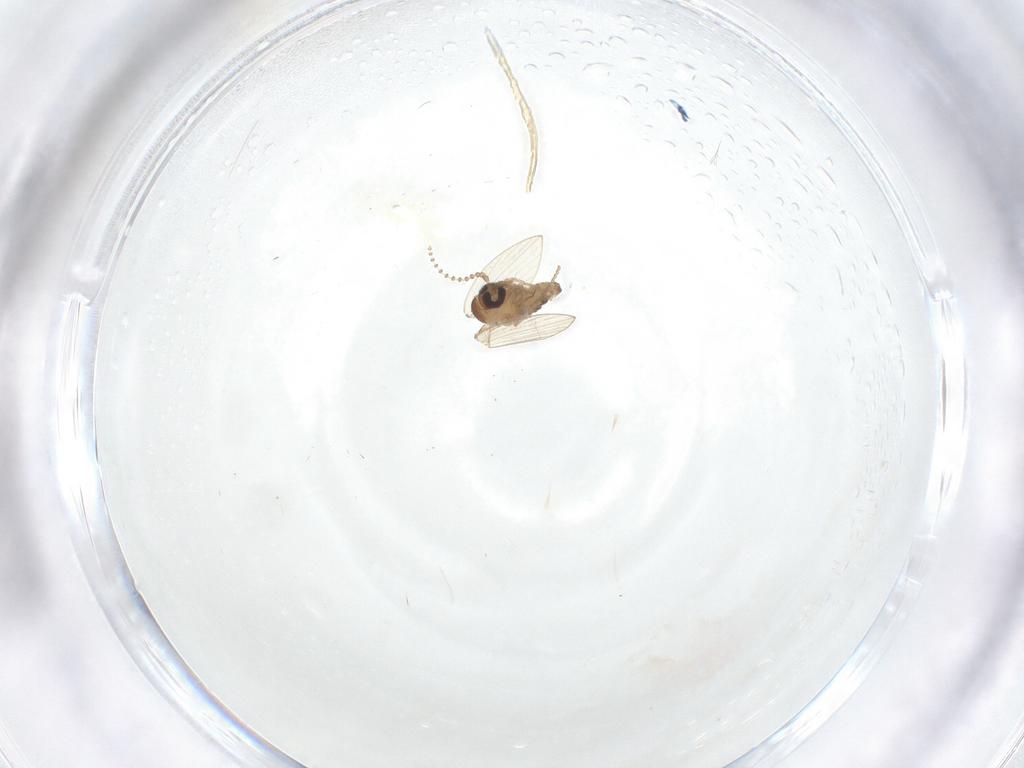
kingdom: Animalia
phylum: Arthropoda
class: Insecta
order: Diptera
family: Psychodidae
